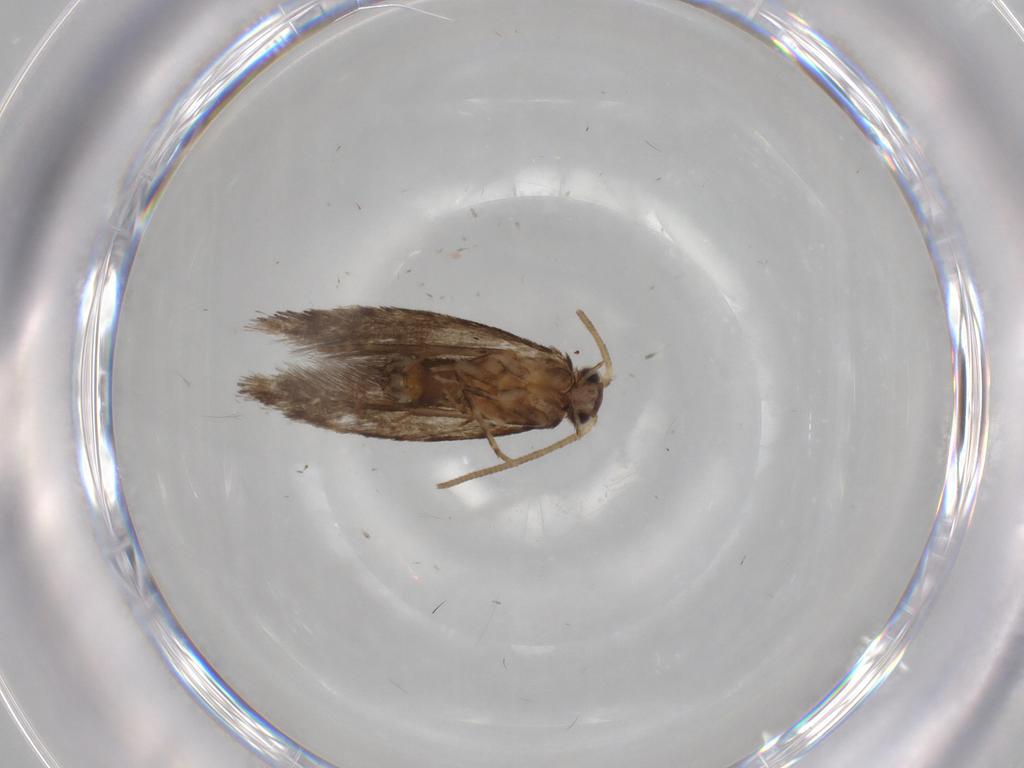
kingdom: Animalia
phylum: Arthropoda
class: Insecta
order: Lepidoptera
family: Tineidae
